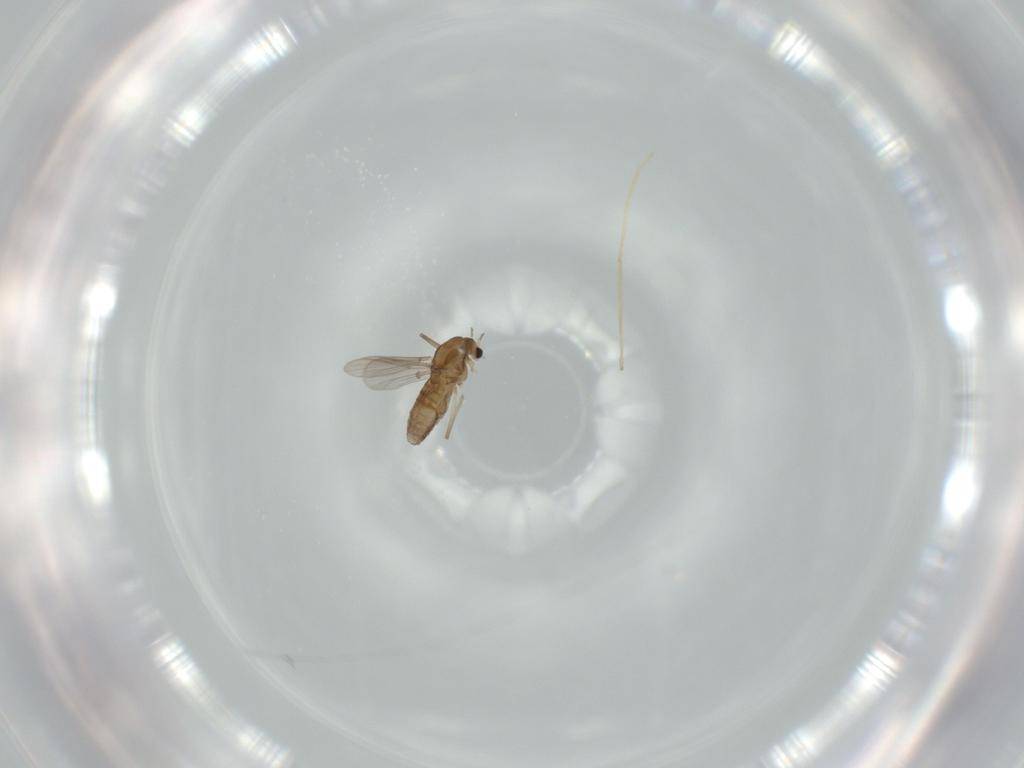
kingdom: Animalia
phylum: Arthropoda
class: Insecta
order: Diptera
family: Chironomidae
